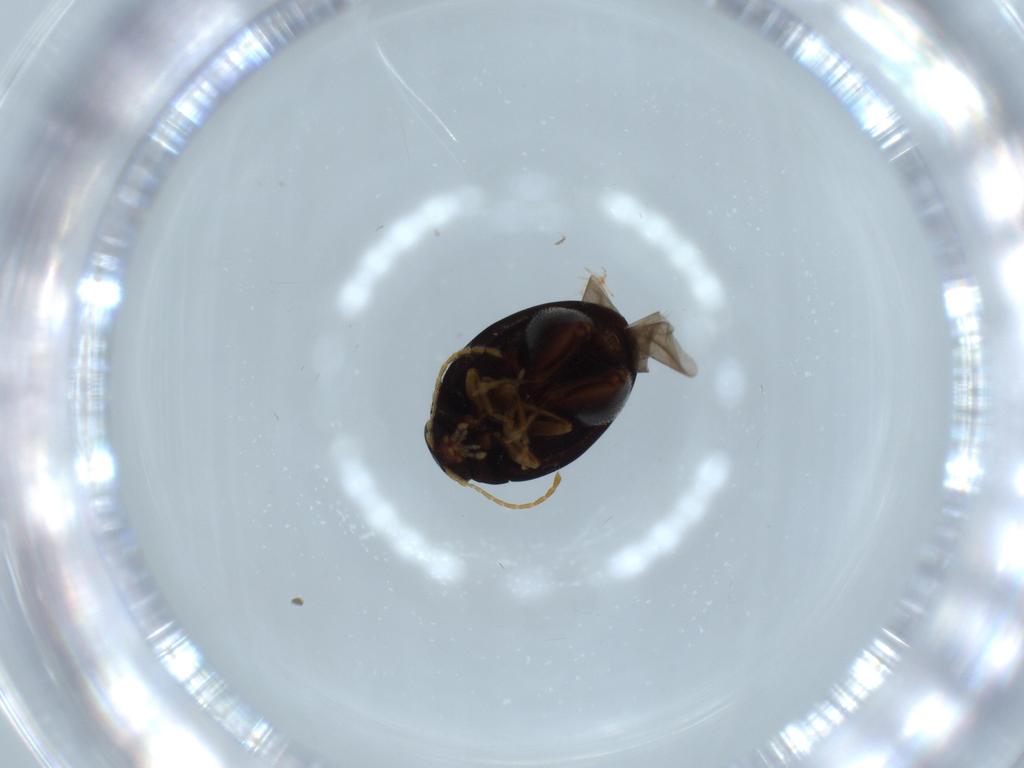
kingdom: Animalia
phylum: Arthropoda
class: Insecta
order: Coleoptera
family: Chrysomelidae
